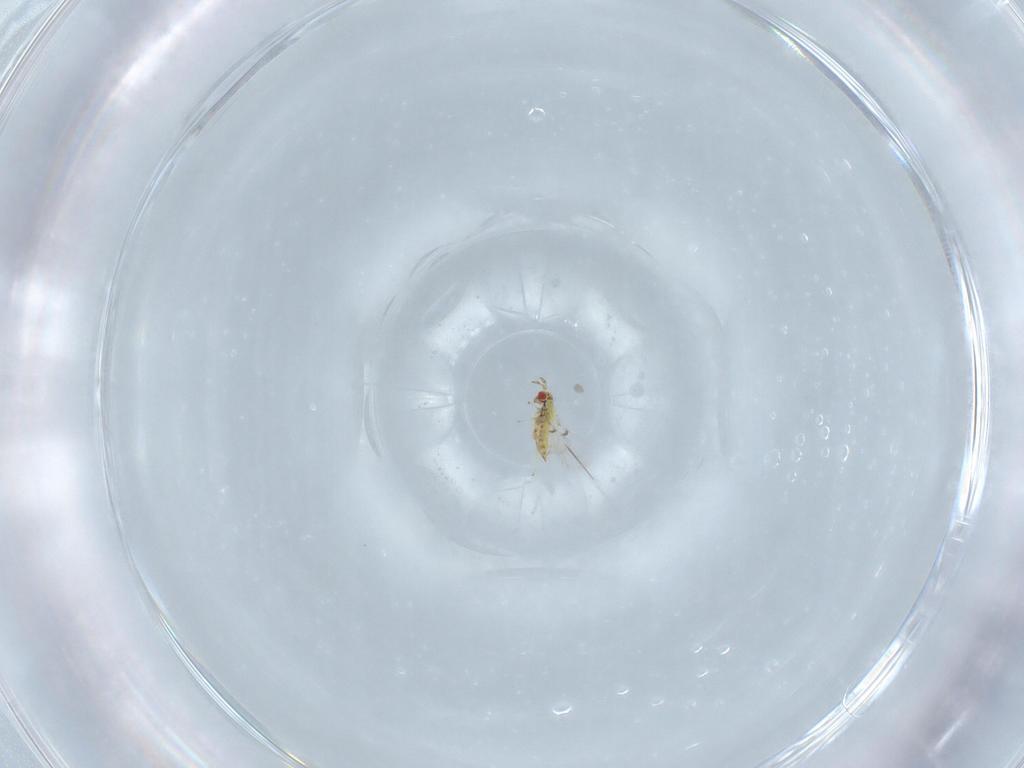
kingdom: Animalia
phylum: Arthropoda
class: Insecta
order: Hymenoptera
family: Trichogrammatidae
